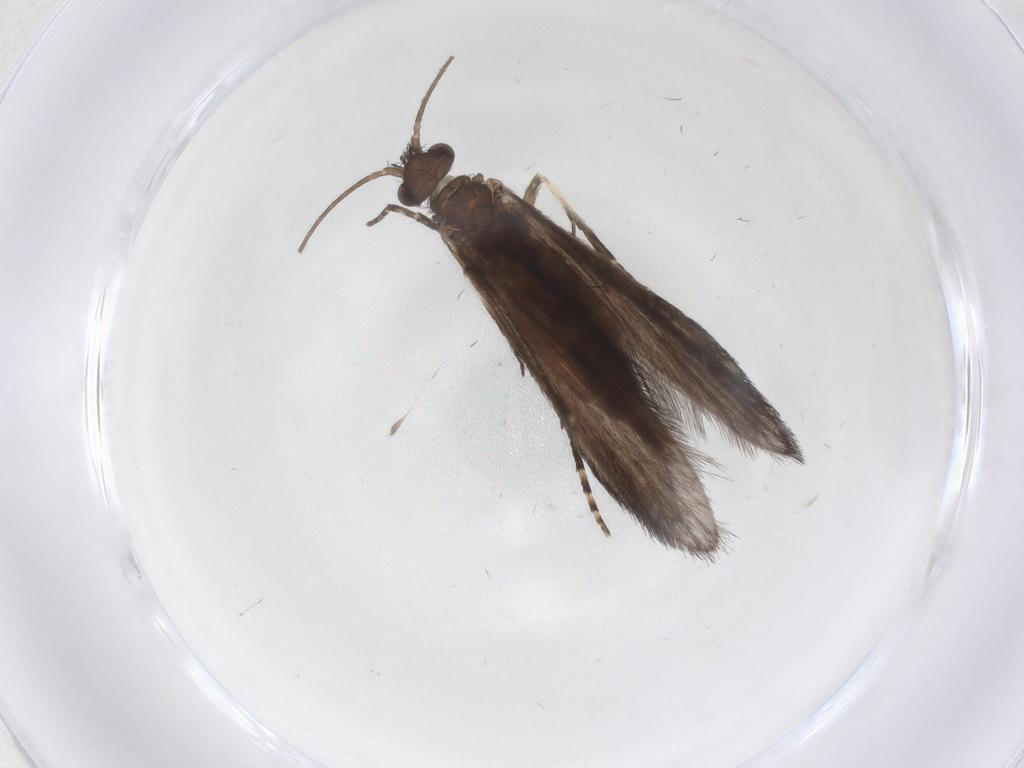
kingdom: Animalia
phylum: Arthropoda
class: Insecta
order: Trichoptera
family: Xiphocentronidae
